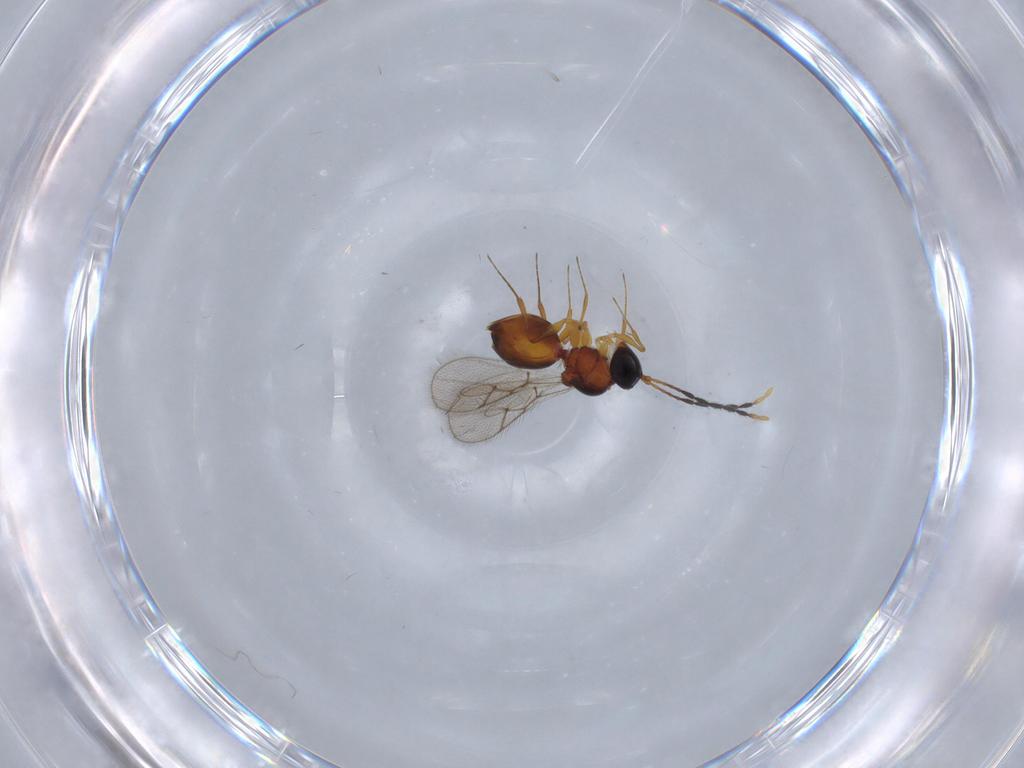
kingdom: Animalia
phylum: Arthropoda
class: Insecta
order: Hymenoptera
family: Figitidae
